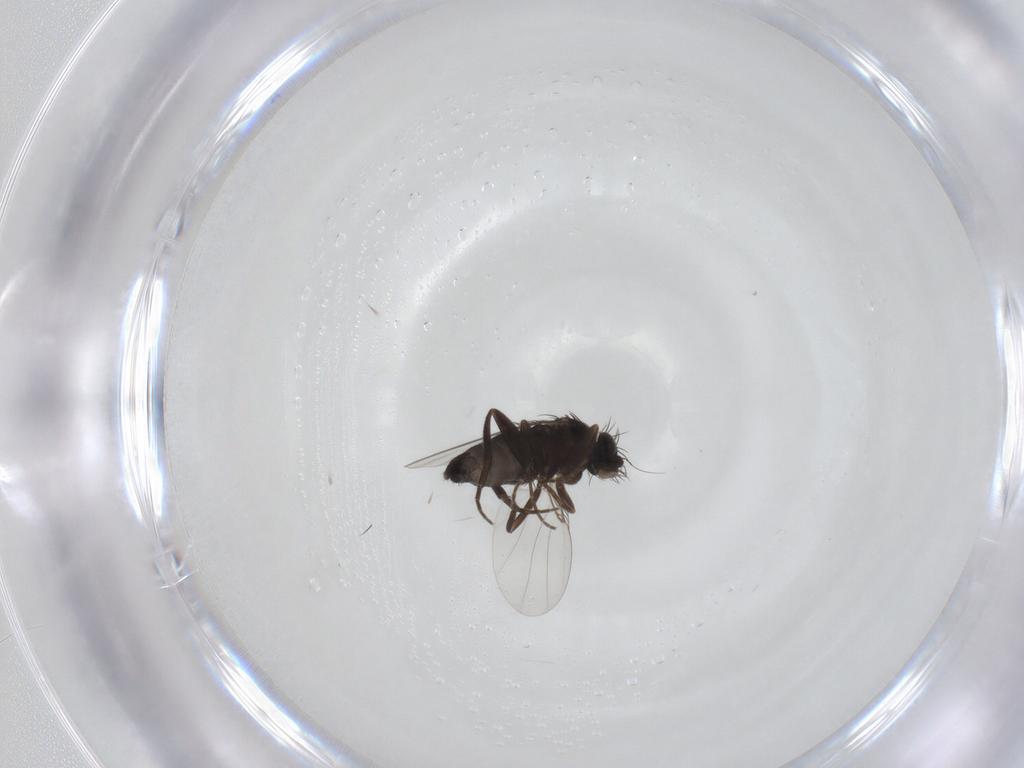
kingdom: Animalia
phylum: Arthropoda
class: Insecta
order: Diptera
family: Phoridae
